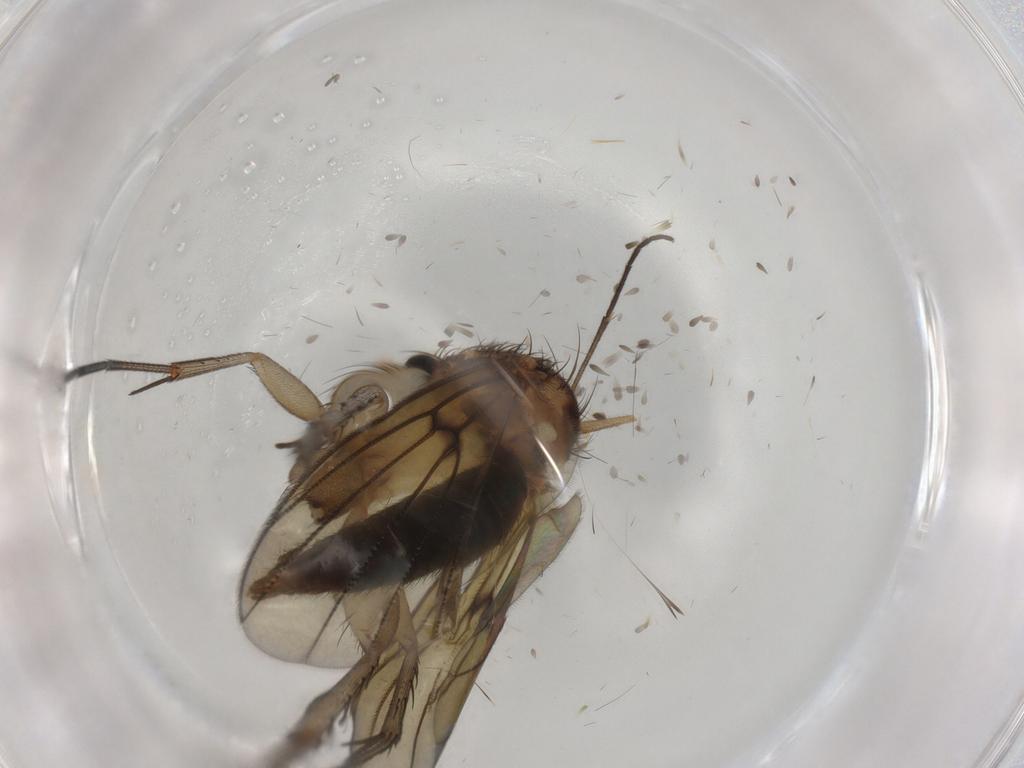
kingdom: Animalia
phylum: Arthropoda
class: Insecta
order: Diptera
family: Mycetophilidae
